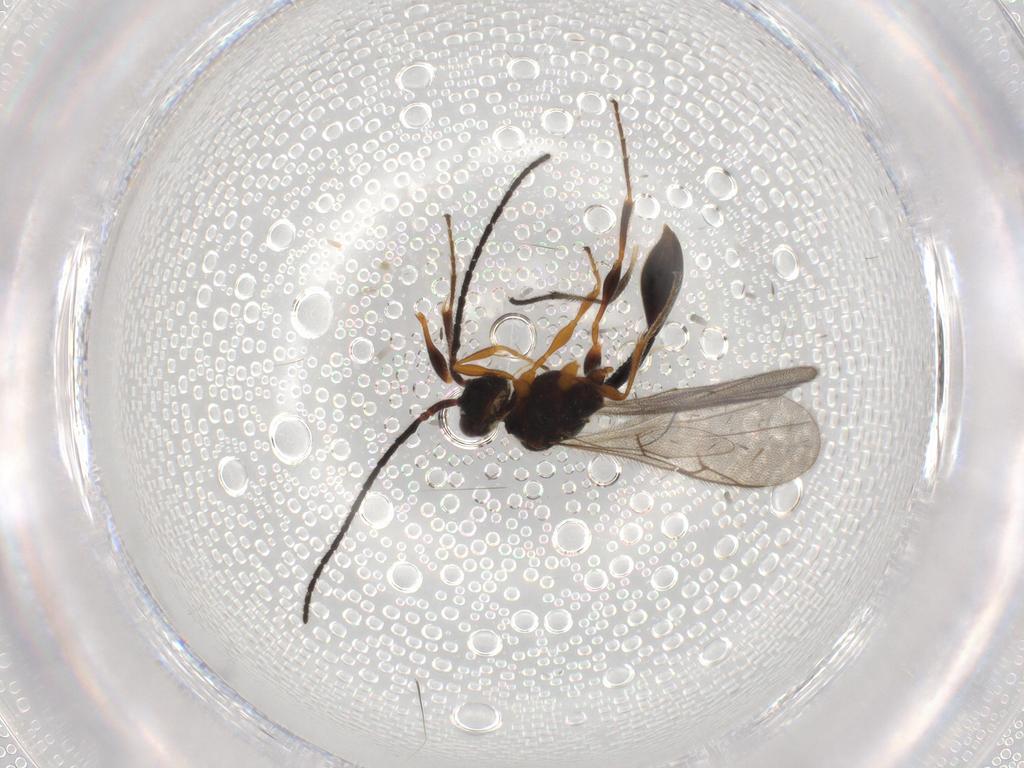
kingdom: Animalia
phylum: Arthropoda
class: Insecta
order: Hymenoptera
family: Diapriidae
